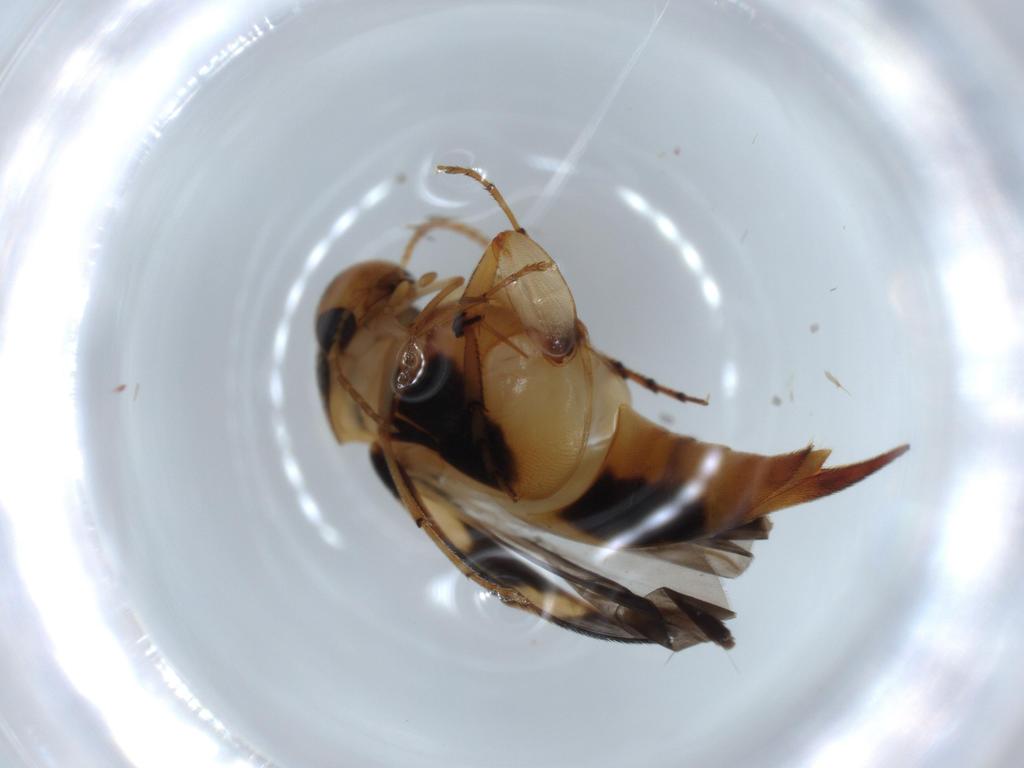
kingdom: Animalia
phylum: Arthropoda
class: Insecta
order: Coleoptera
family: Mordellidae
